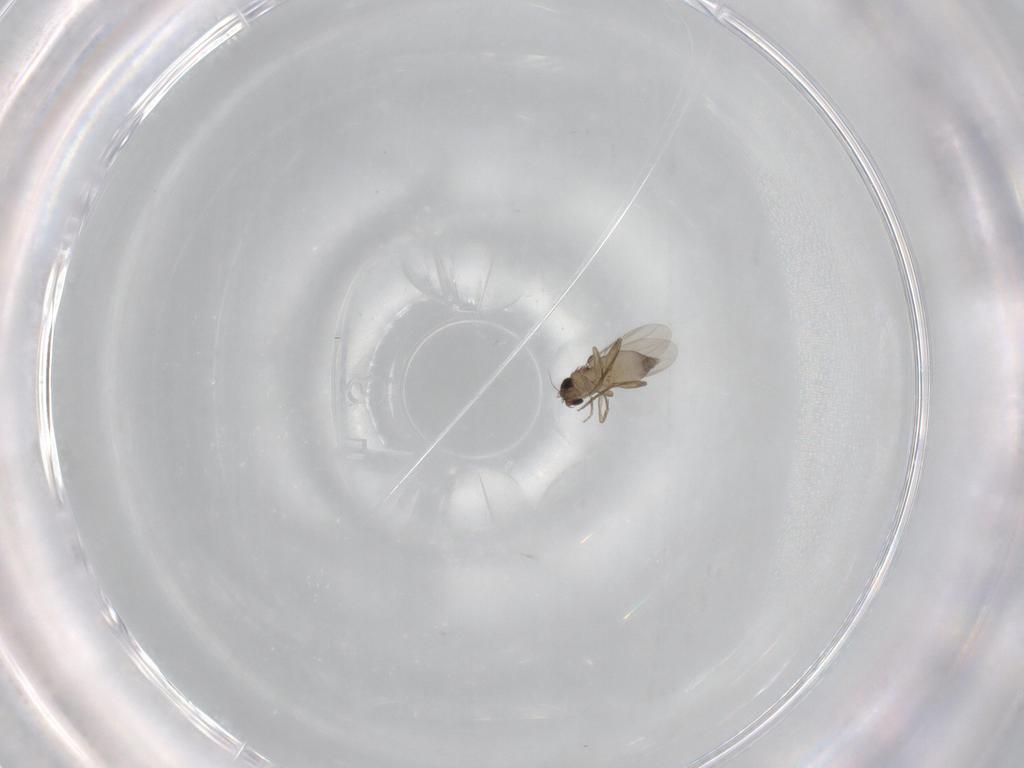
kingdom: Animalia
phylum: Arthropoda
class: Insecta
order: Diptera
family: Phoridae
